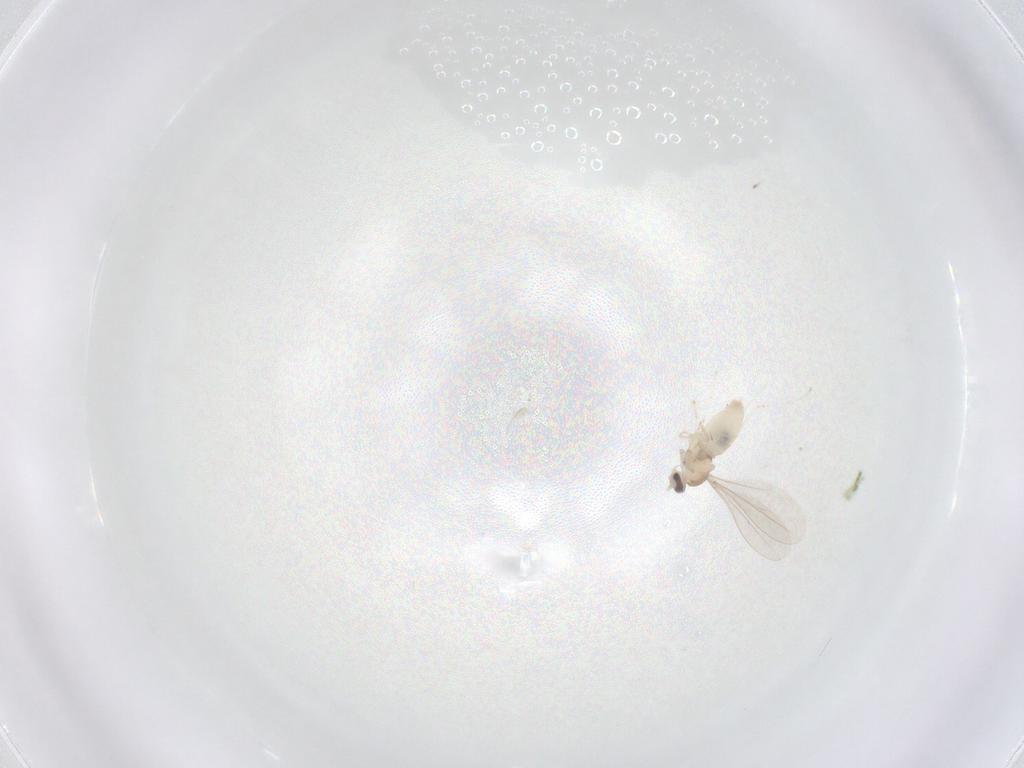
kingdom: Animalia
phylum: Arthropoda
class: Insecta
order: Diptera
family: Cecidomyiidae
